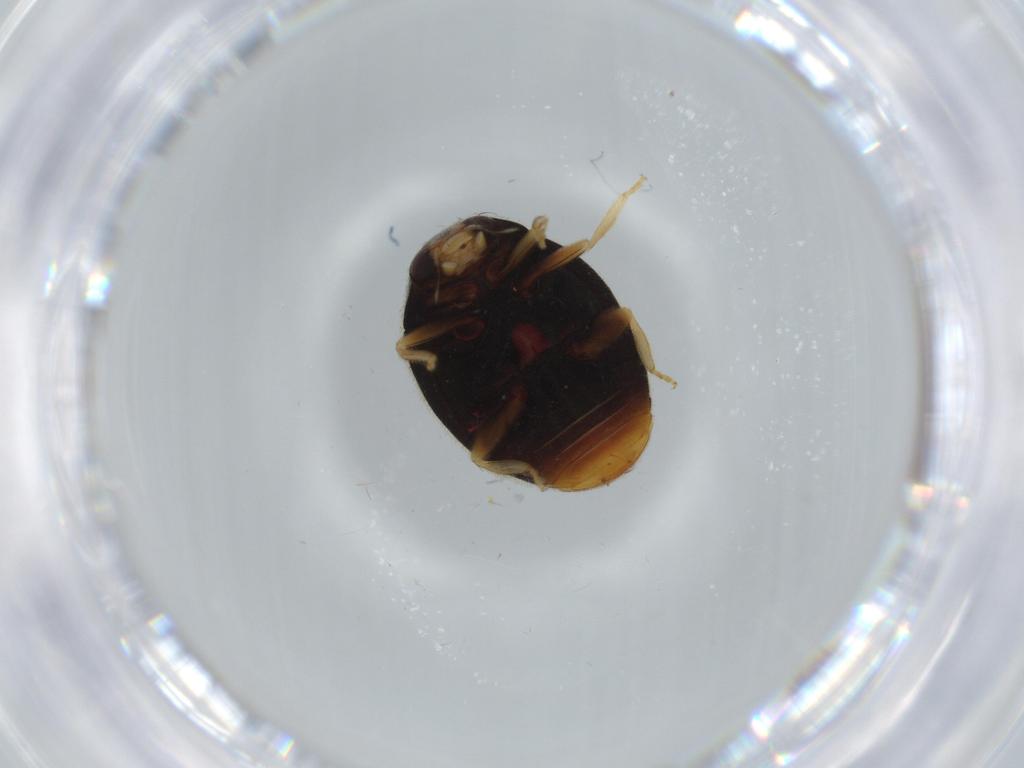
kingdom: Animalia
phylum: Arthropoda
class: Insecta
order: Coleoptera
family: Coccinellidae
